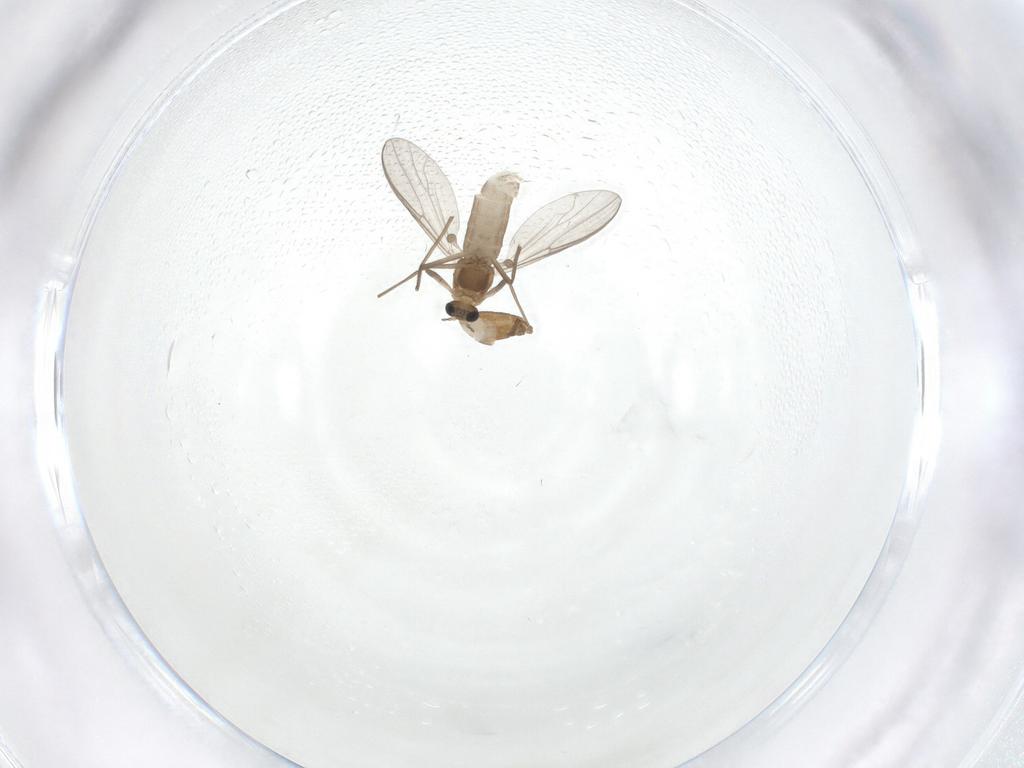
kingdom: Animalia
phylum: Arthropoda
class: Insecta
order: Diptera
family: Chironomidae
